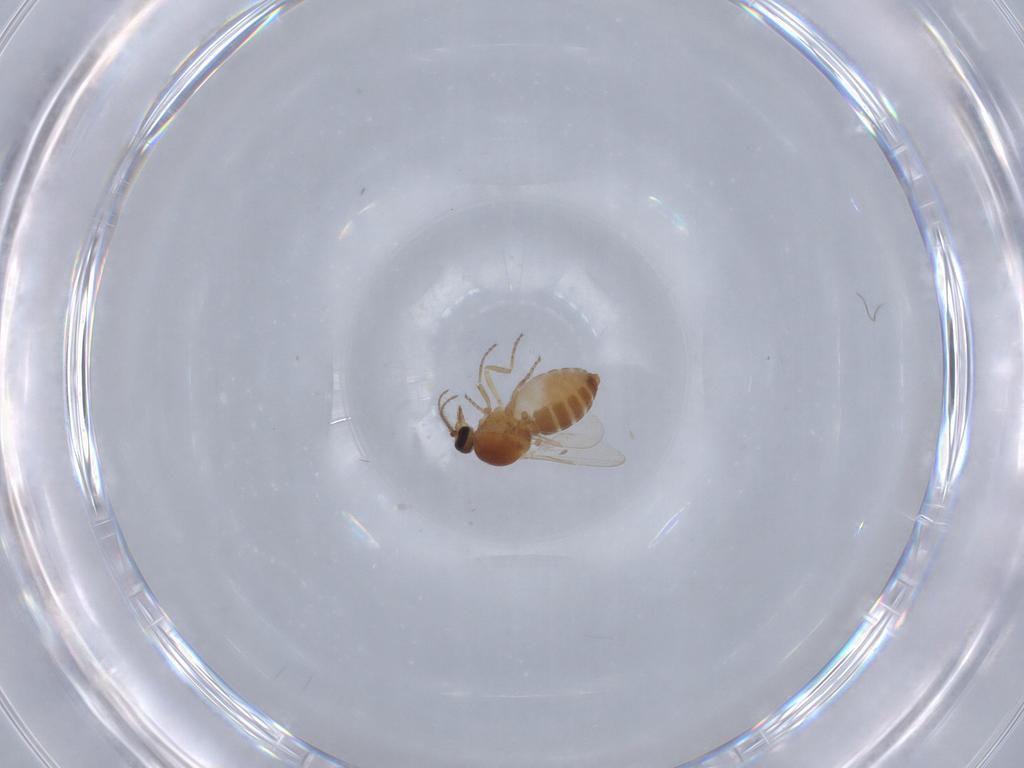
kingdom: Animalia
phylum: Arthropoda
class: Insecta
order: Diptera
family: Ceratopogonidae
